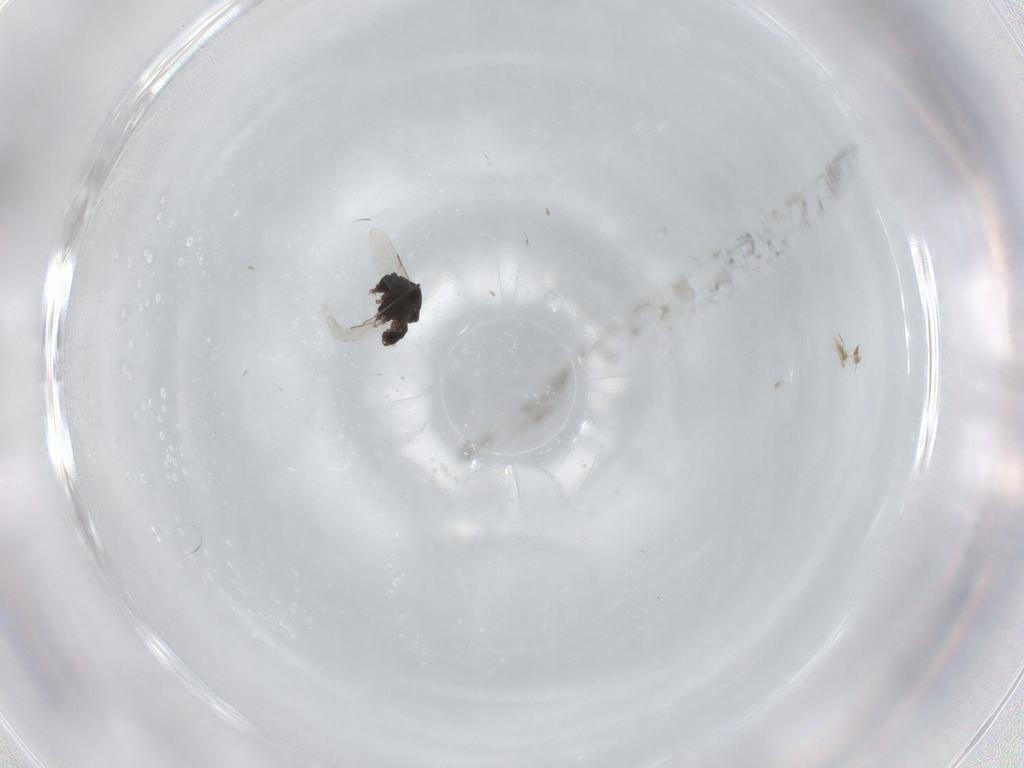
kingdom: Animalia
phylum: Arthropoda
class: Insecta
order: Diptera
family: Ceratopogonidae
